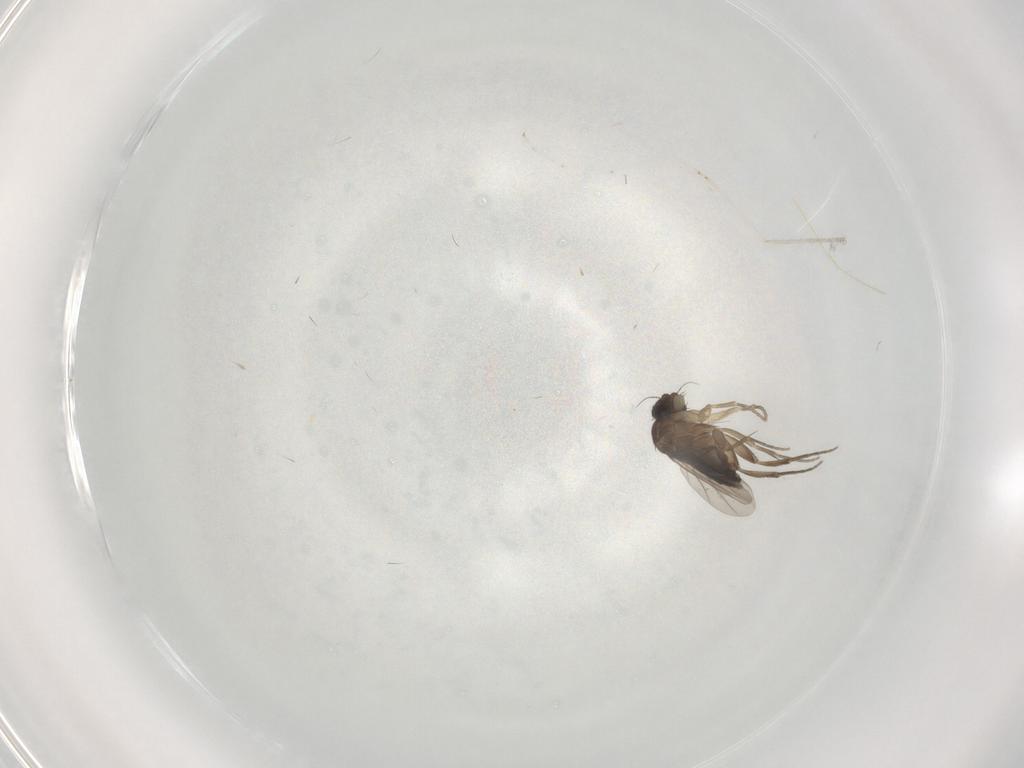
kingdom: Animalia
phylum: Arthropoda
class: Insecta
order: Diptera
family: Phoridae
